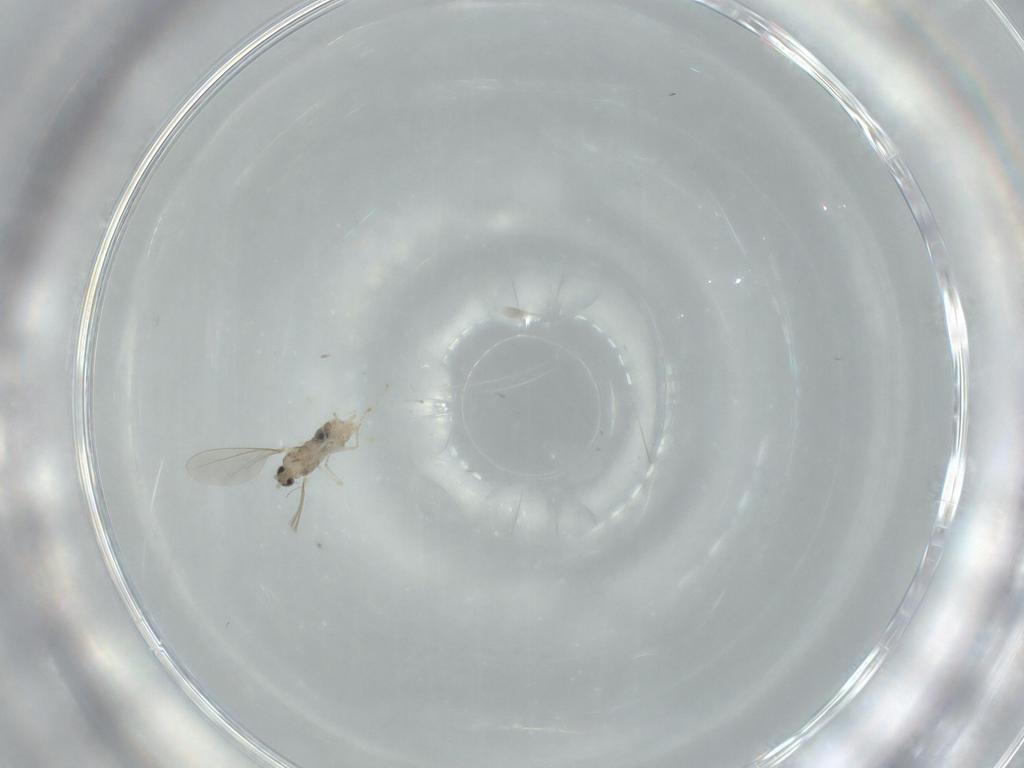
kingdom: Animalia
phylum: Arthropoda
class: Insecta
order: Diptera
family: Cecidomyiidae
